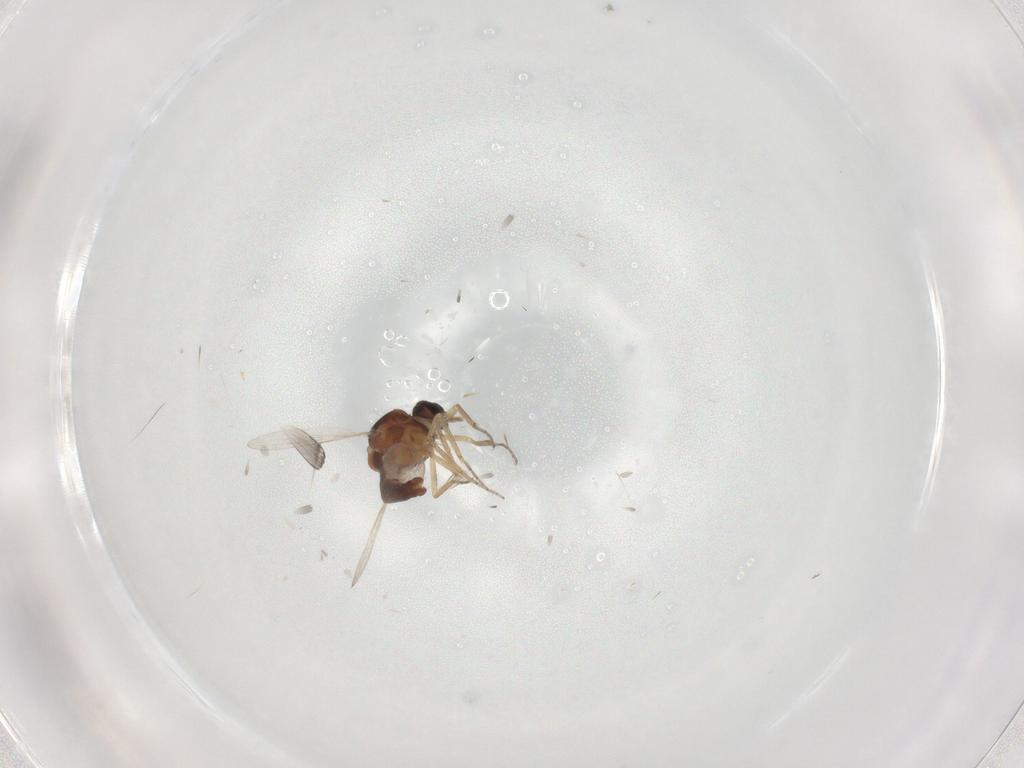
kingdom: Animalia
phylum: Arthropoda
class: Insecta
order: Diptera
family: Ceratopogonidae
